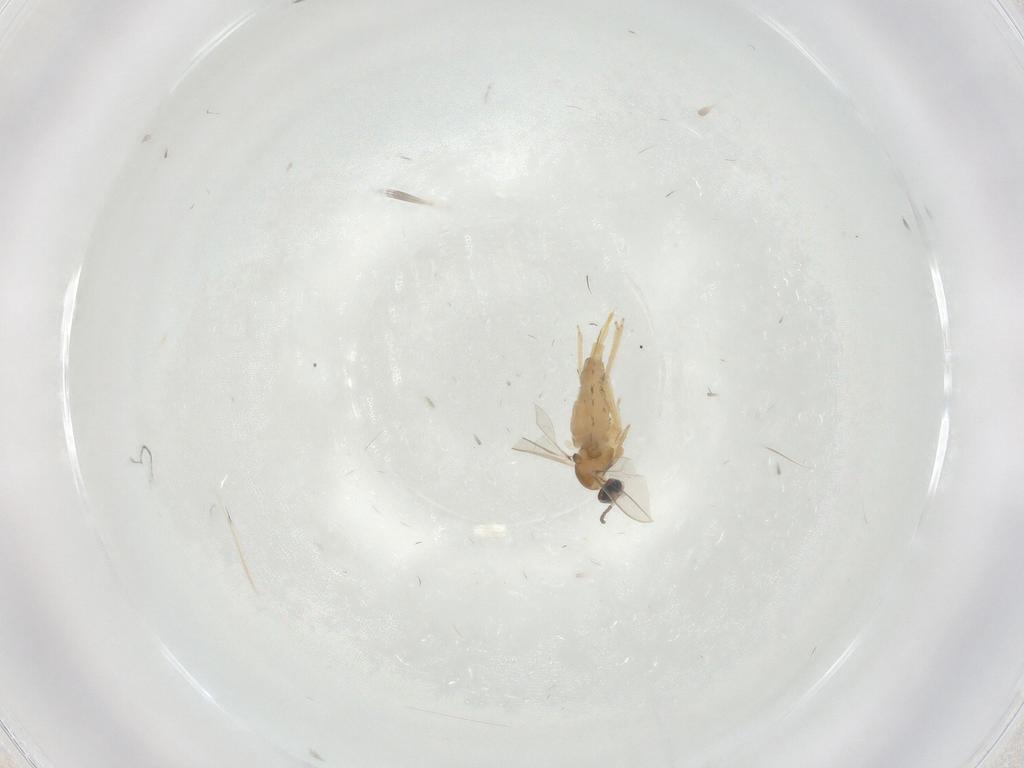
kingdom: Animalia
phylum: Arthropoda
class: Insecta
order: Diptera
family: Cecidomyiidae
